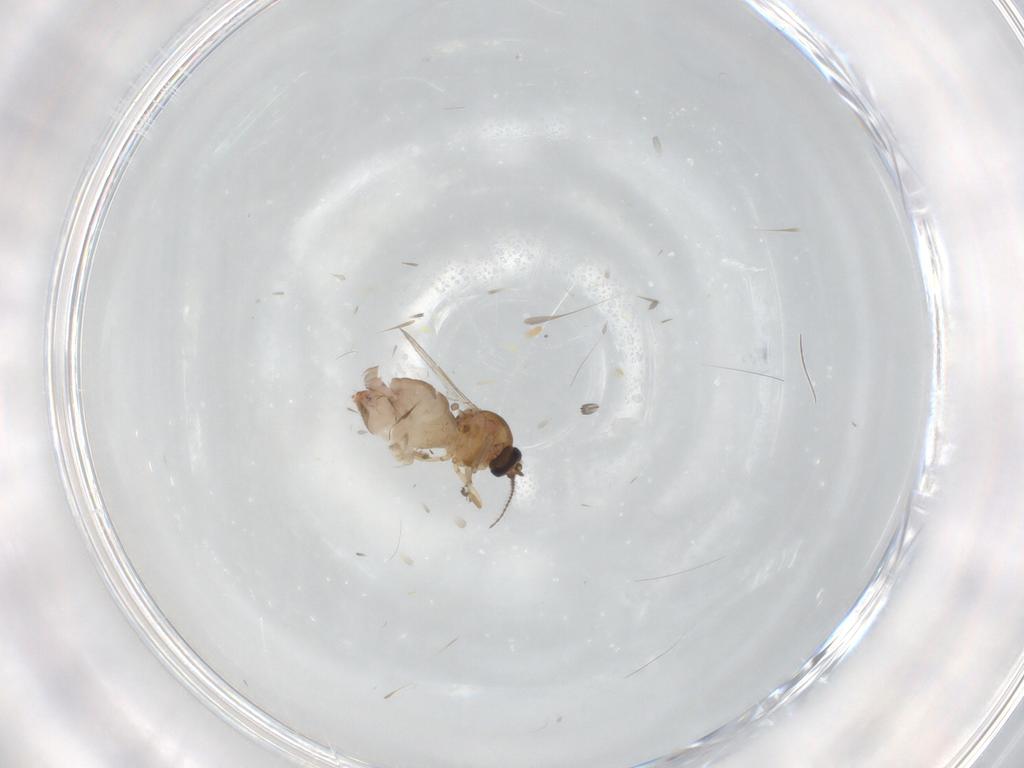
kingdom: Animalia
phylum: Arthropoda
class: Insecta
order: Diptera
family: Ceratopogonidae
